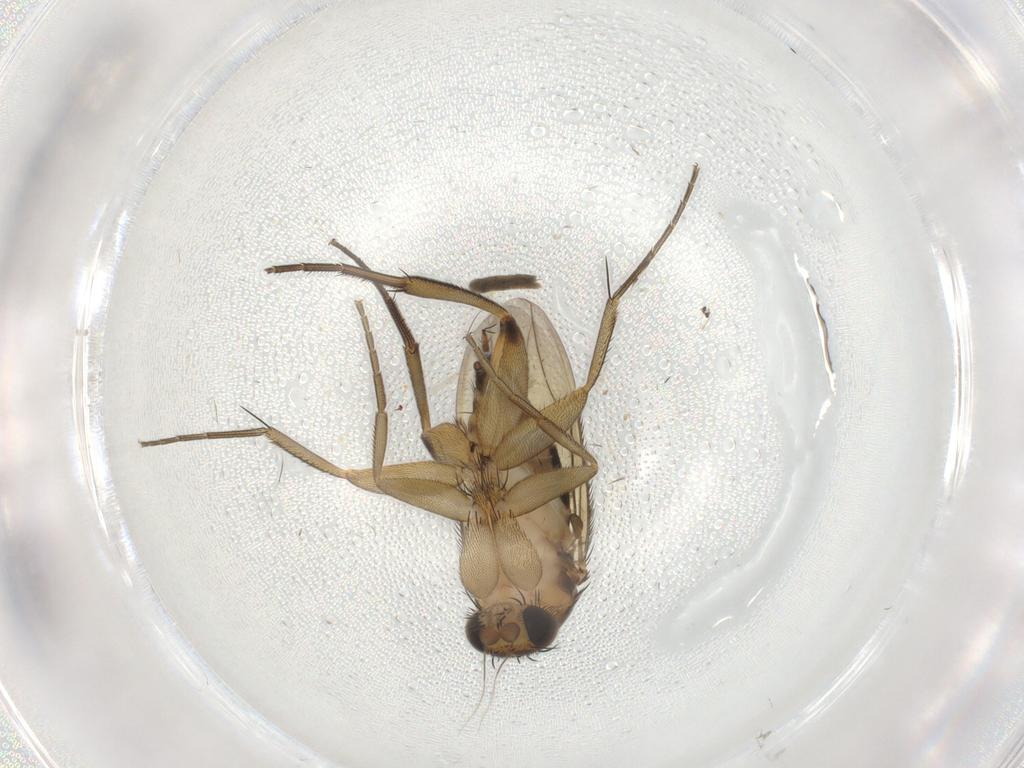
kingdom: Animalia
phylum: Arthropoda
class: Insecta
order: Diptera
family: Phoridae
